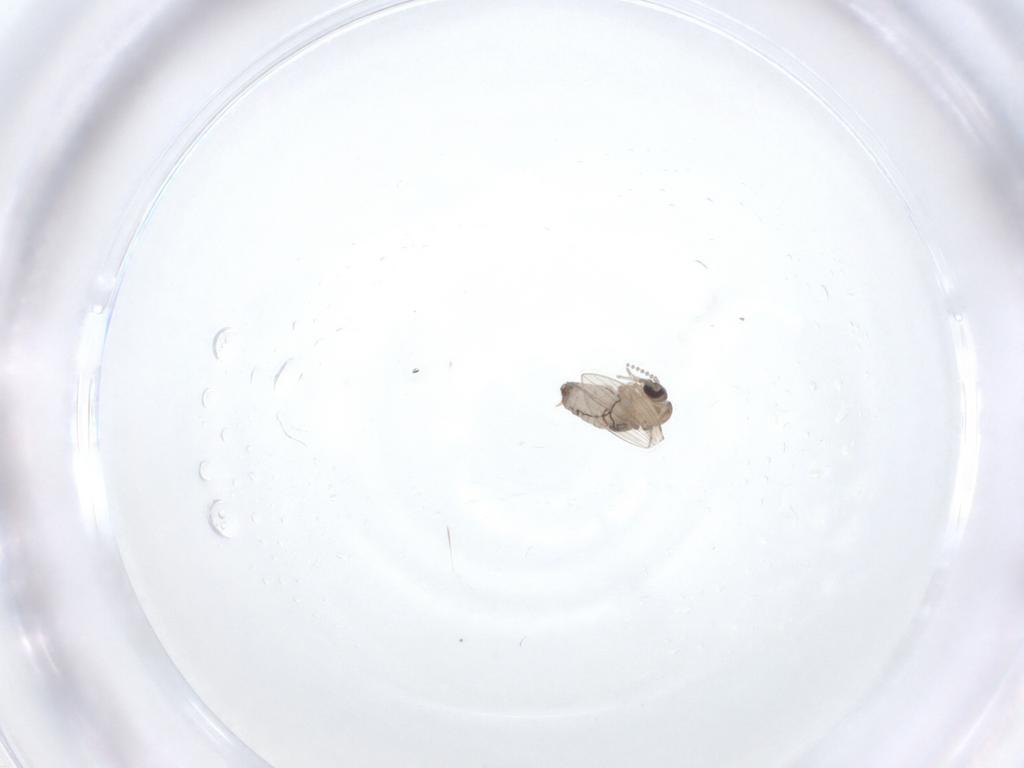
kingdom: Animalia
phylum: Arthropoda
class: Insecta
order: Diptera
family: Psychodidae
